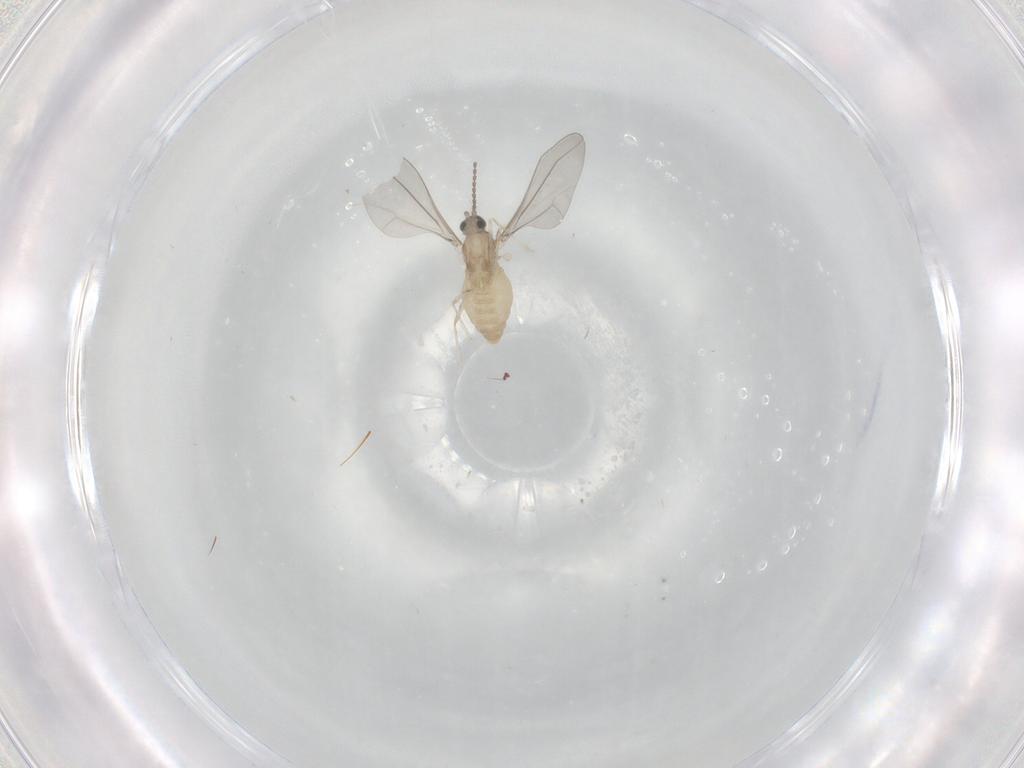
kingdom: Animalia
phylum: Arthropoda
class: Insecta
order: Diptera
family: Cecidomyiidae
